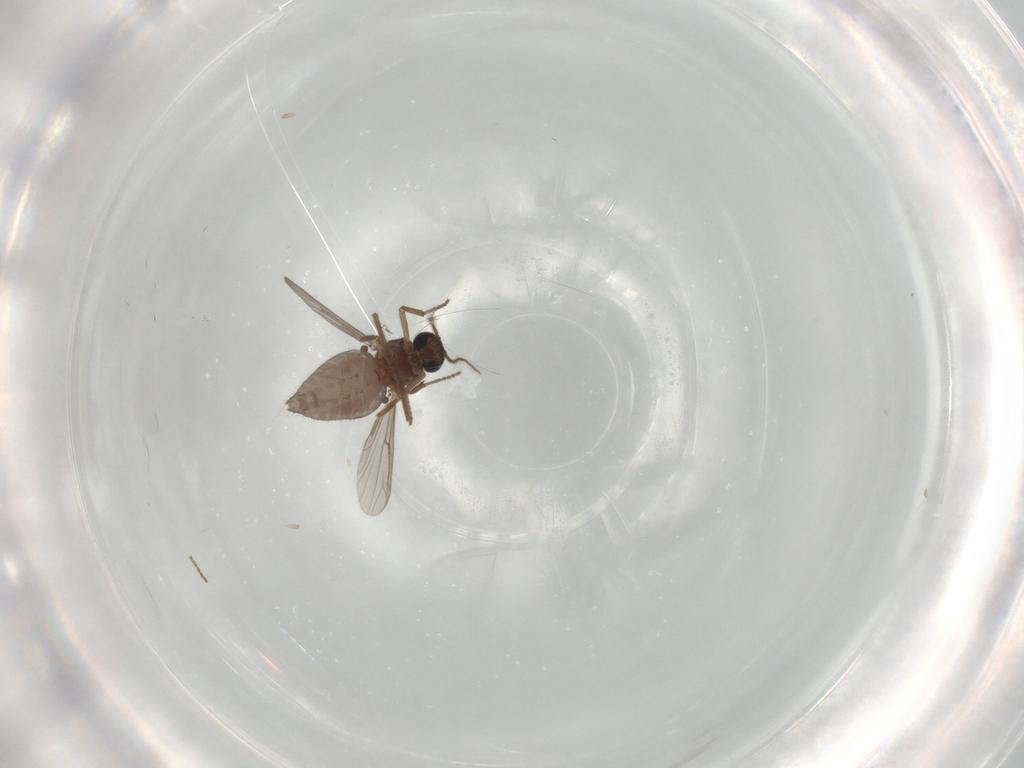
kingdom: Animalia
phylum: Arthropoda
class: Insecta
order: Diptera
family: Ceratopogonidae
